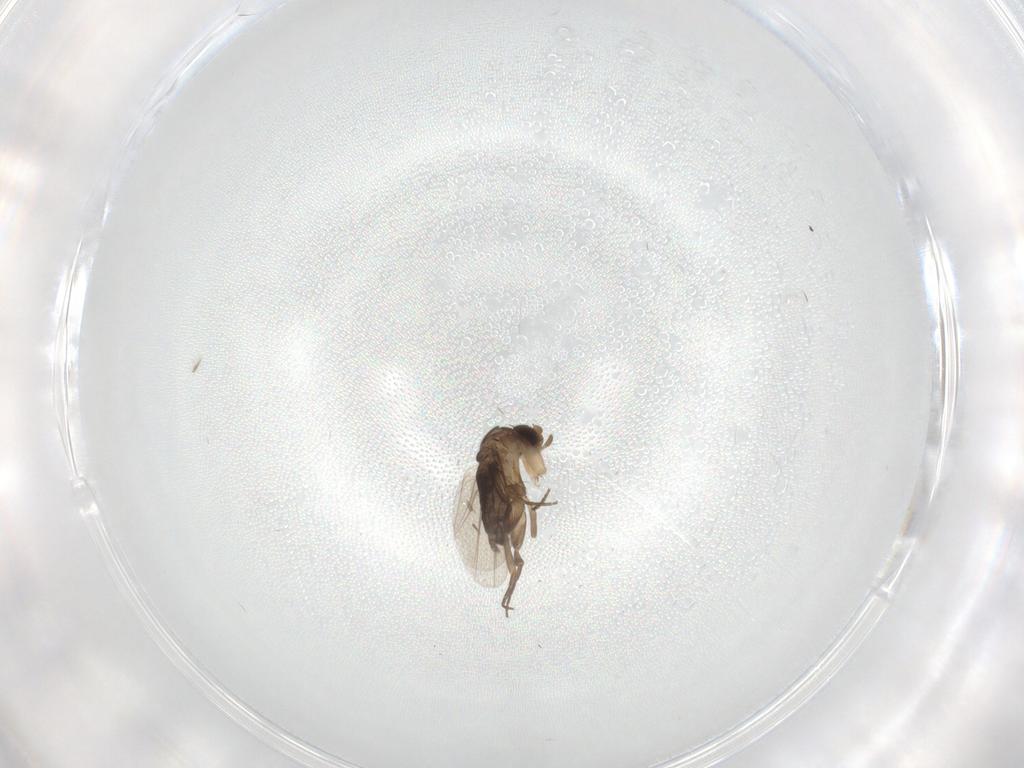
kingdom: Animalia
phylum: Arthropoda
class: Insecta
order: Diptera
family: Phoridae
